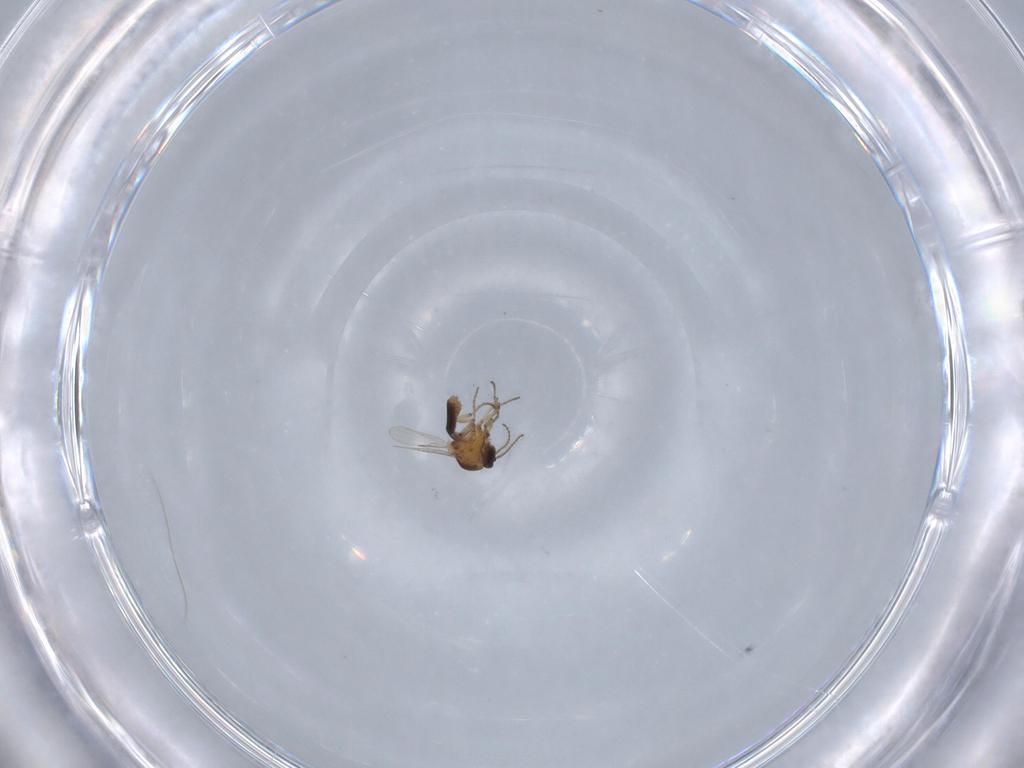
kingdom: Animalia
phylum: Arthropoda
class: Insecta
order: Diptera
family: Ceratopogonidae
